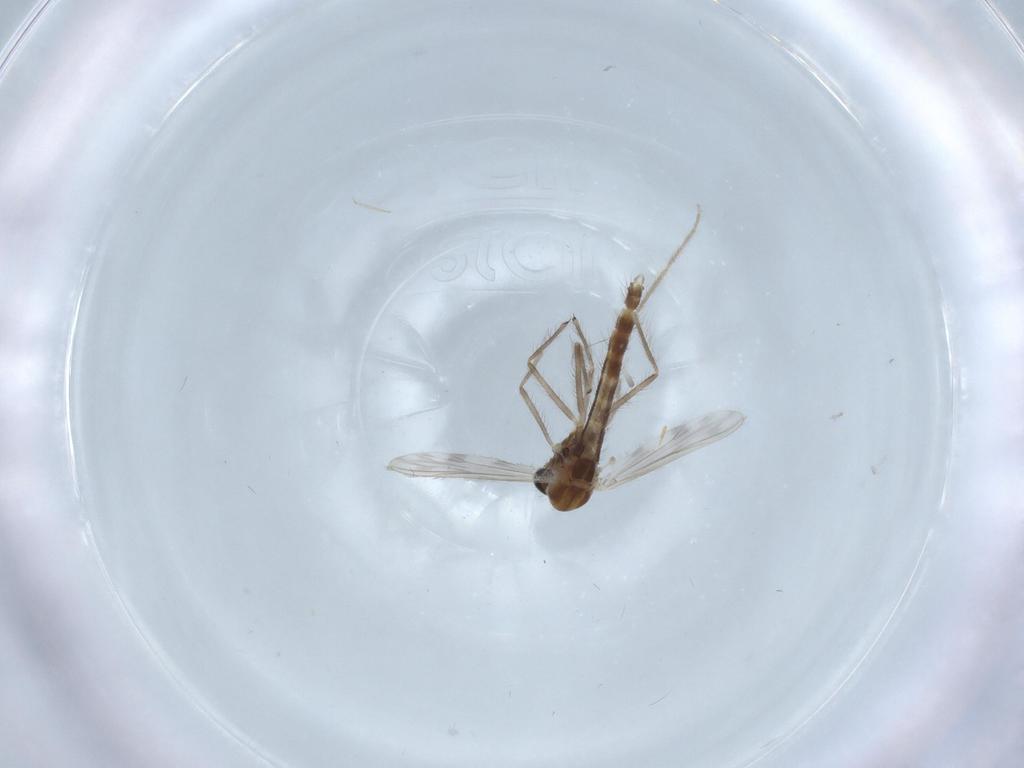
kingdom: Animalia
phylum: Arthropoda
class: Insecta
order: Diptera
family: Chironomidae
